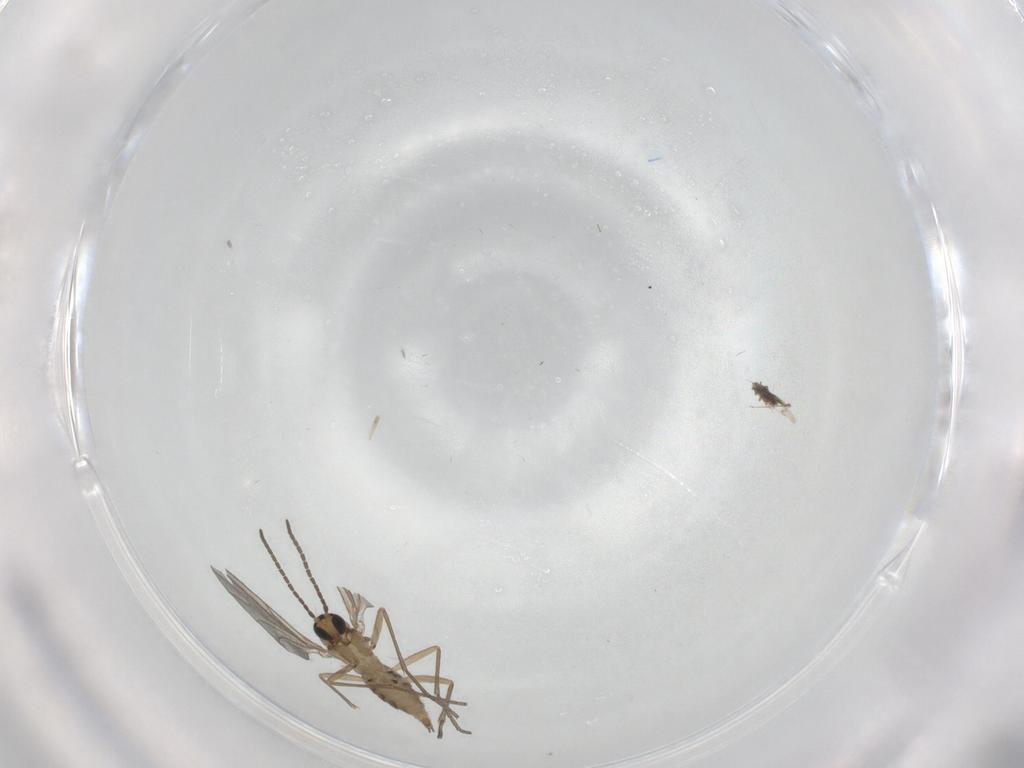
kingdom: Animalia
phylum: Arthropoda
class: Insecta
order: Diptera
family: Sciaridae
